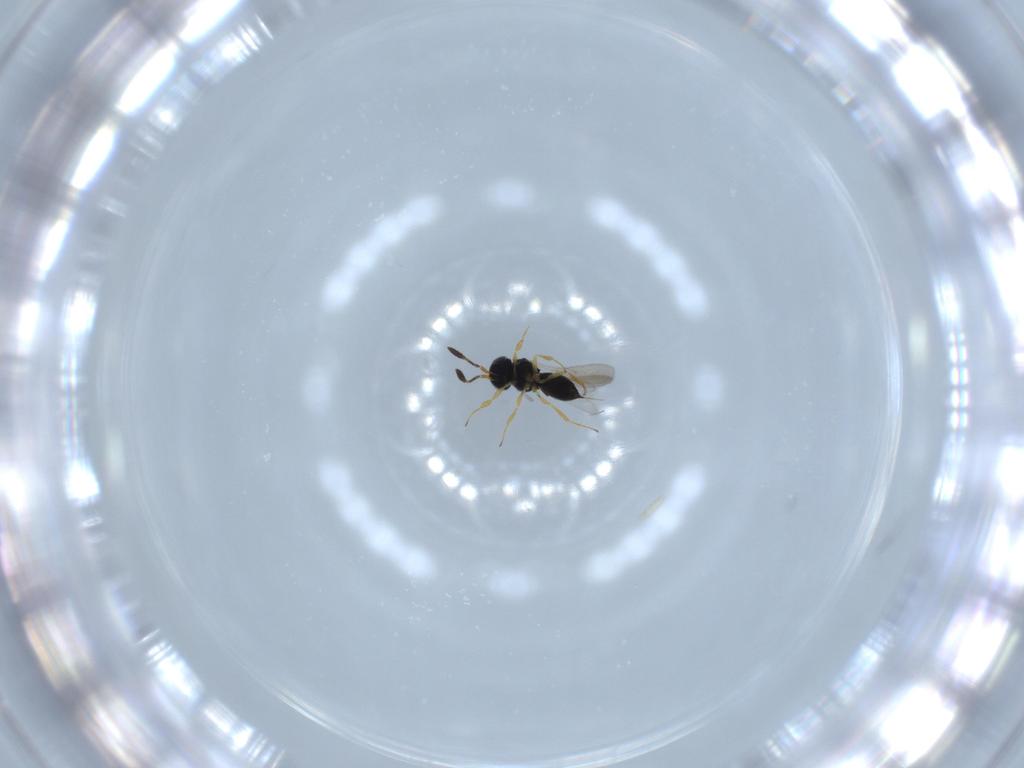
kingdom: Animalia
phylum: Arthropoda
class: Insecta
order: Hymenoptera
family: Scelionidae
